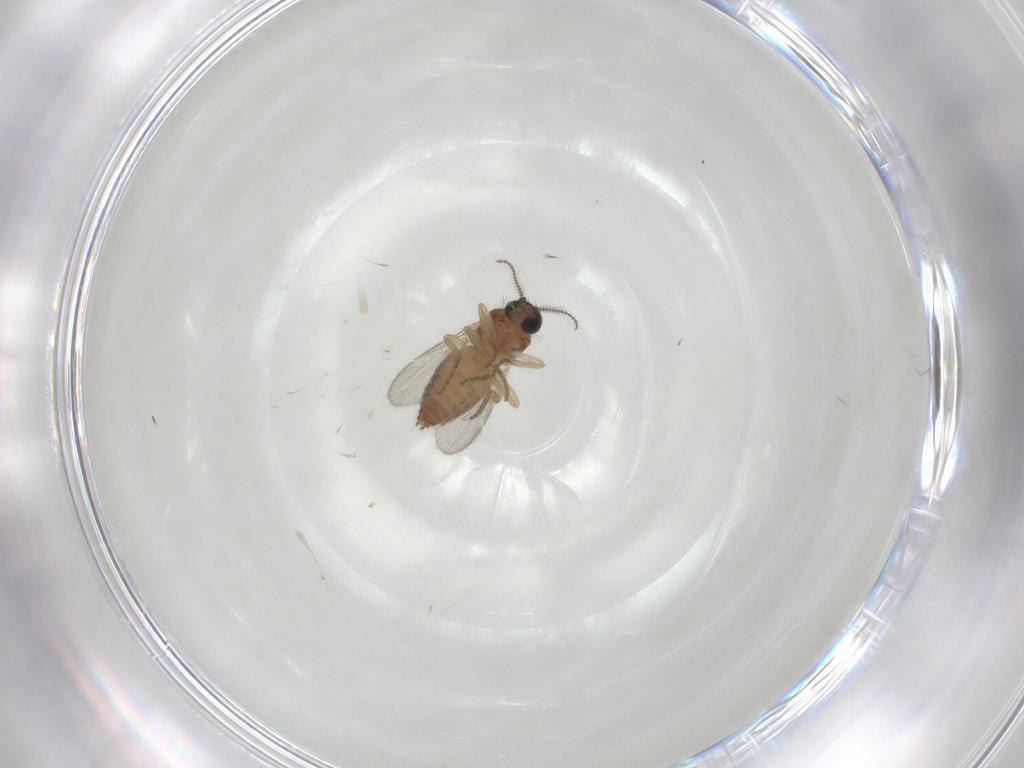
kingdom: Animalia
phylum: Arthropoda
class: Insecta
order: Diptera
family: Ceratopogonidae
